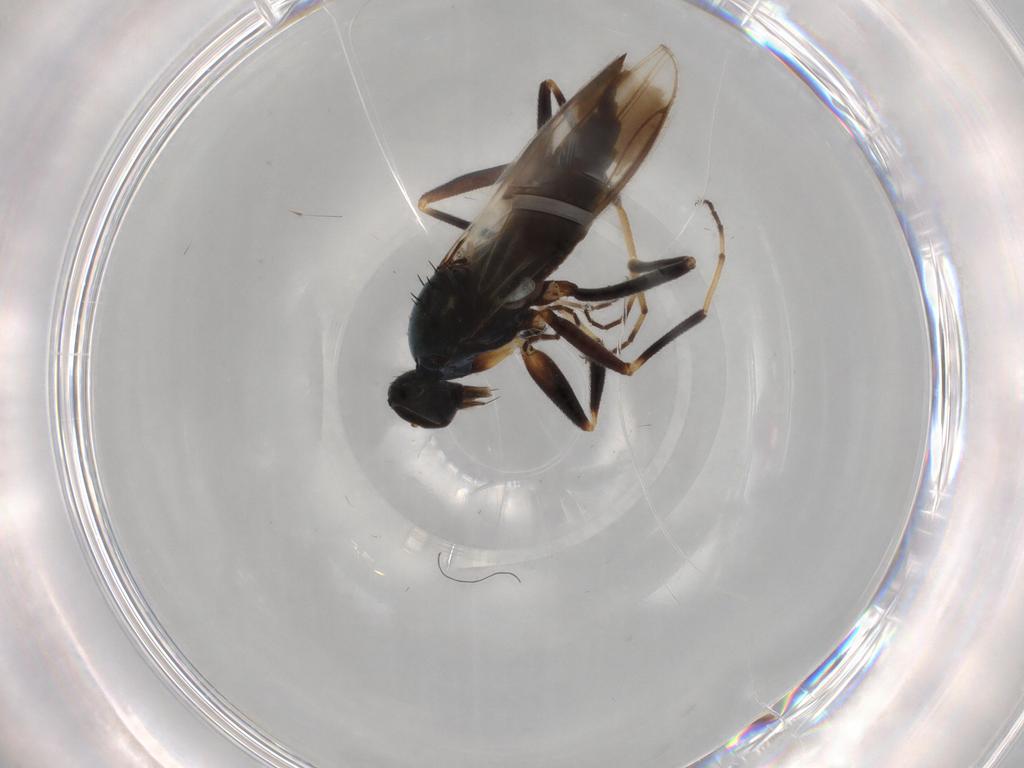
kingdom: Animalia
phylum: Arthropoda
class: Insecta
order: Diptera
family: Hybotidae
